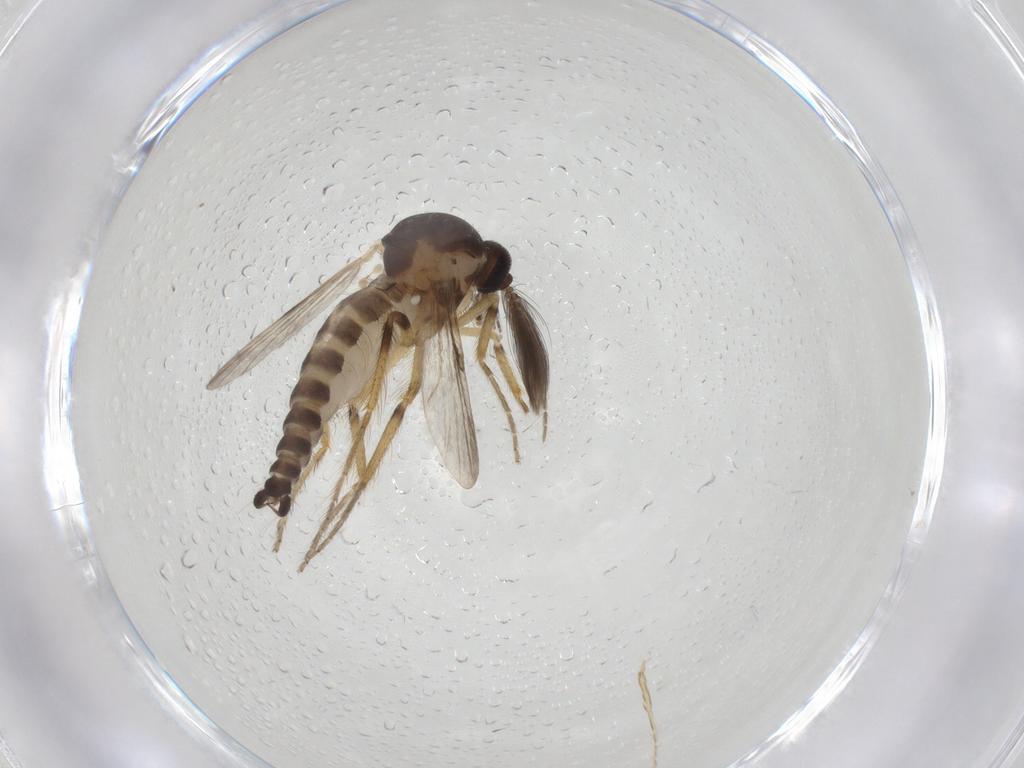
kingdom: Animalia
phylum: Arthropoda
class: Insecta
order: Diptera
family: Ceratopogonidae
